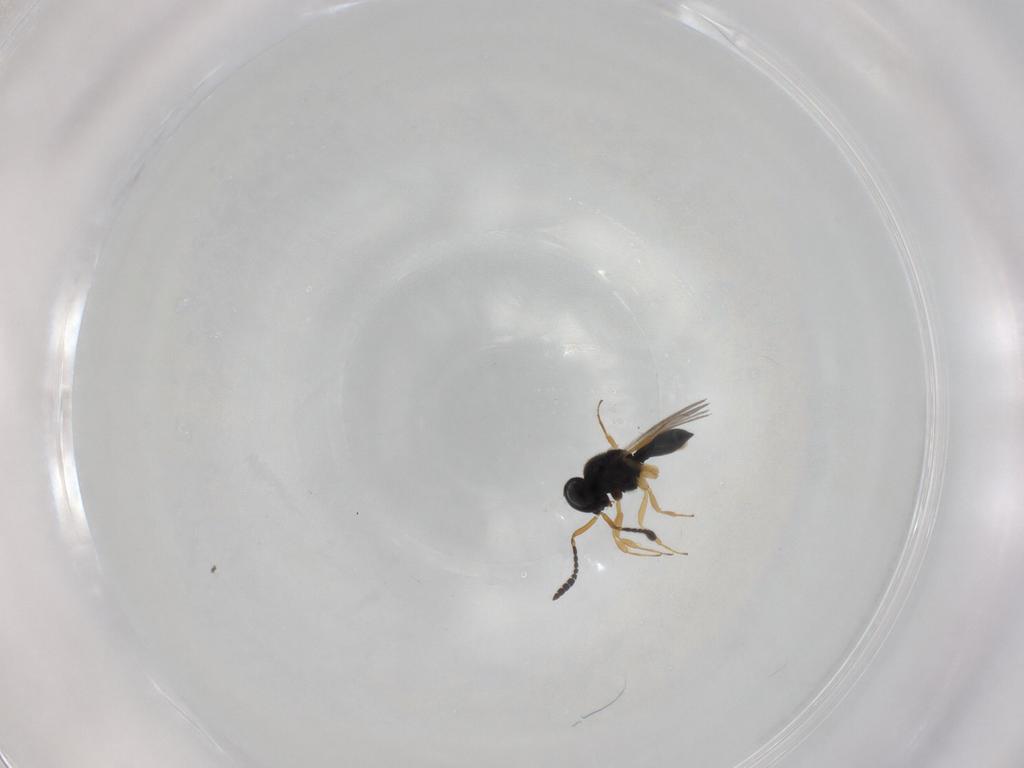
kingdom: Animalia
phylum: Arthropoda
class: Insecta
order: Hymenoptera
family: Scelionidae
